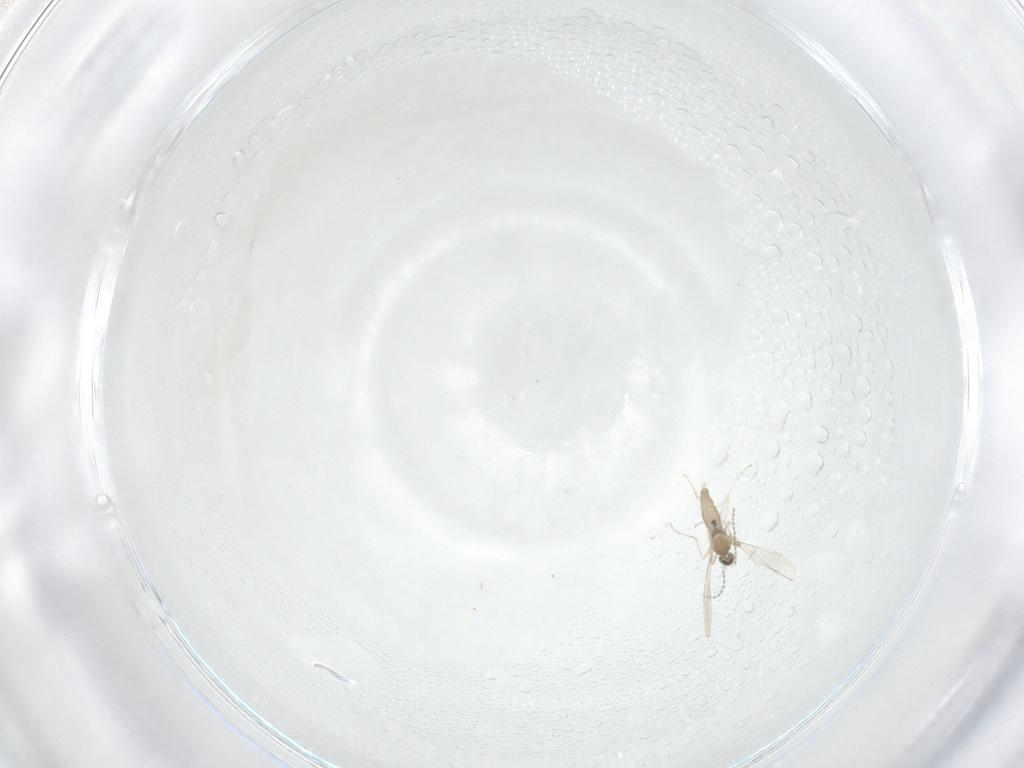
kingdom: Animalia
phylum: Arthropoda
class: Insecta
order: Diptera
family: Cecidomyiidae
